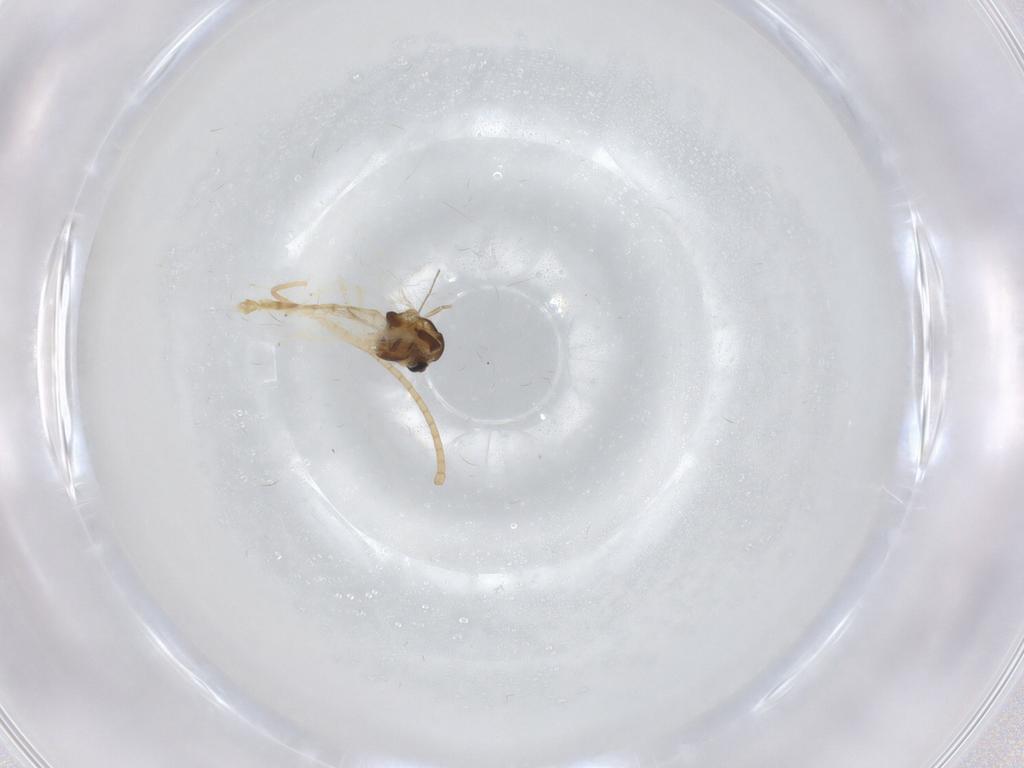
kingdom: Animalia
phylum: Arthropoda
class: Insecta
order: Diptera
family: Chironomidae
